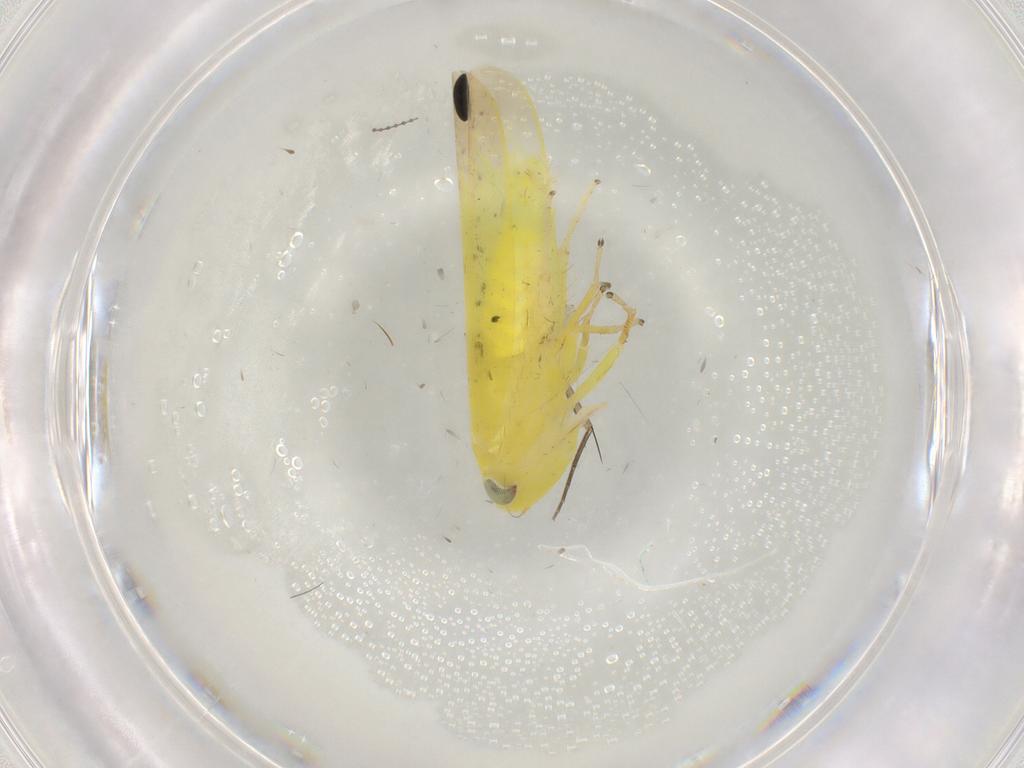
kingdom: Animalia
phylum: Arthropoda
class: Insecta
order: Hemiptera
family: Cicadellidae
